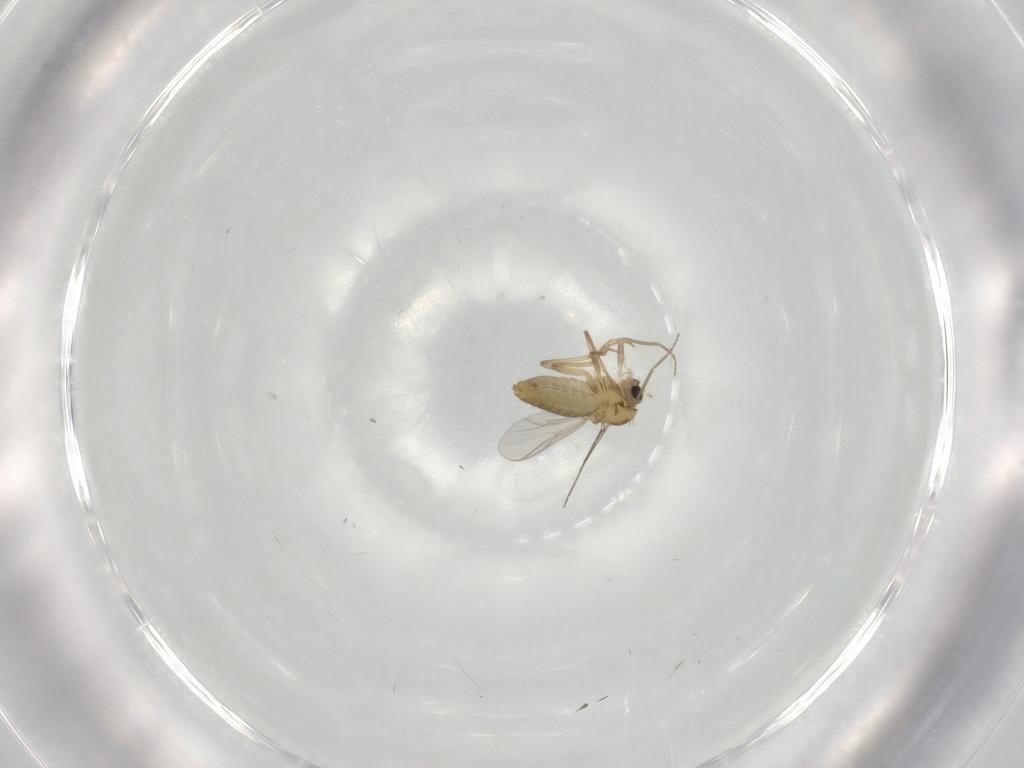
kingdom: Animalia
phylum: Arthropoda
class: Insecta
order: Diptera
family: Chironomidae
